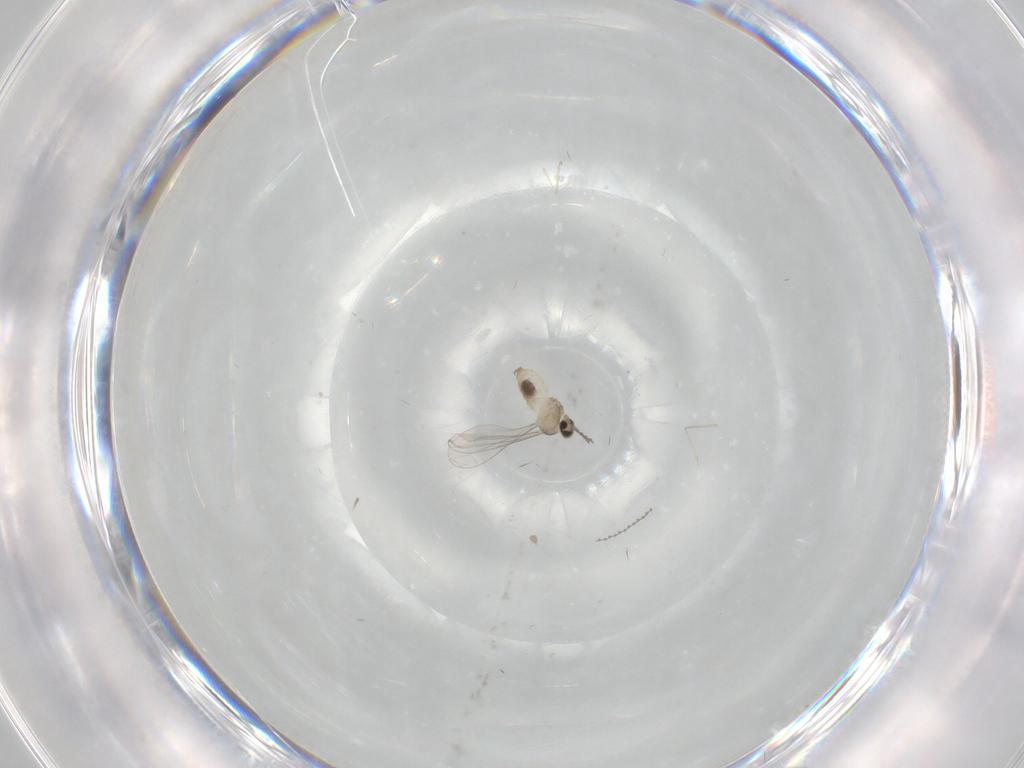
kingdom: Animalia
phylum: Arthropoda
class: Insecta
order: Diptera
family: Cecidomyiidae
